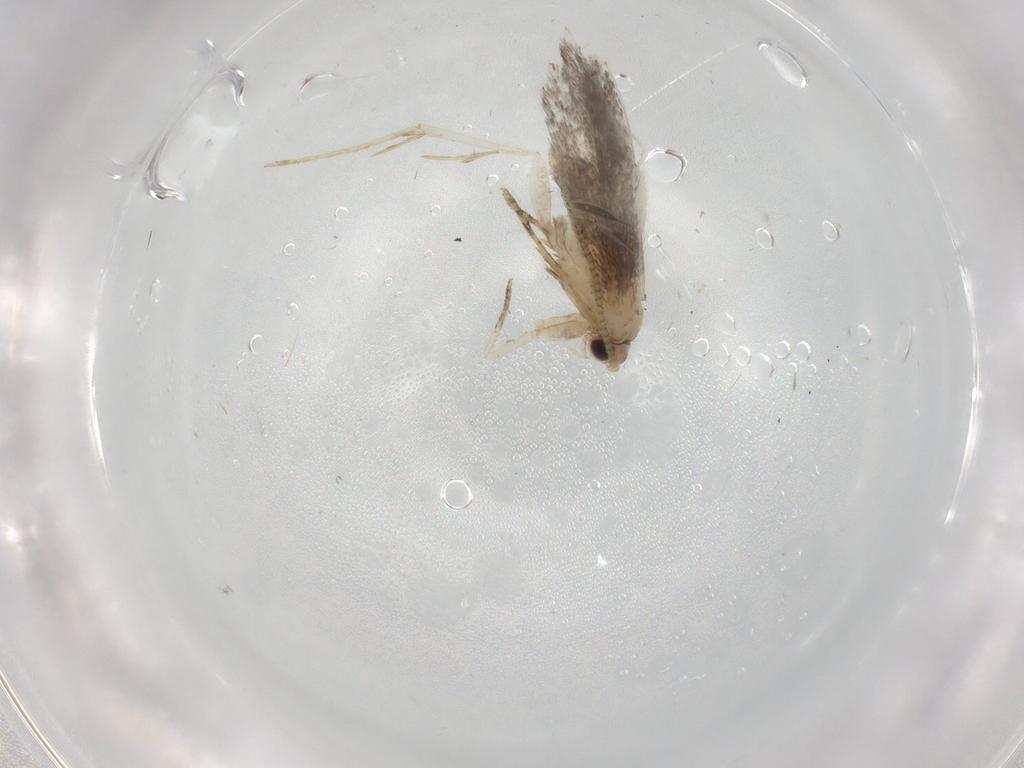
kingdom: Animalia
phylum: Arthropoda
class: Insecta
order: Lepidoptera
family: Tineidae
